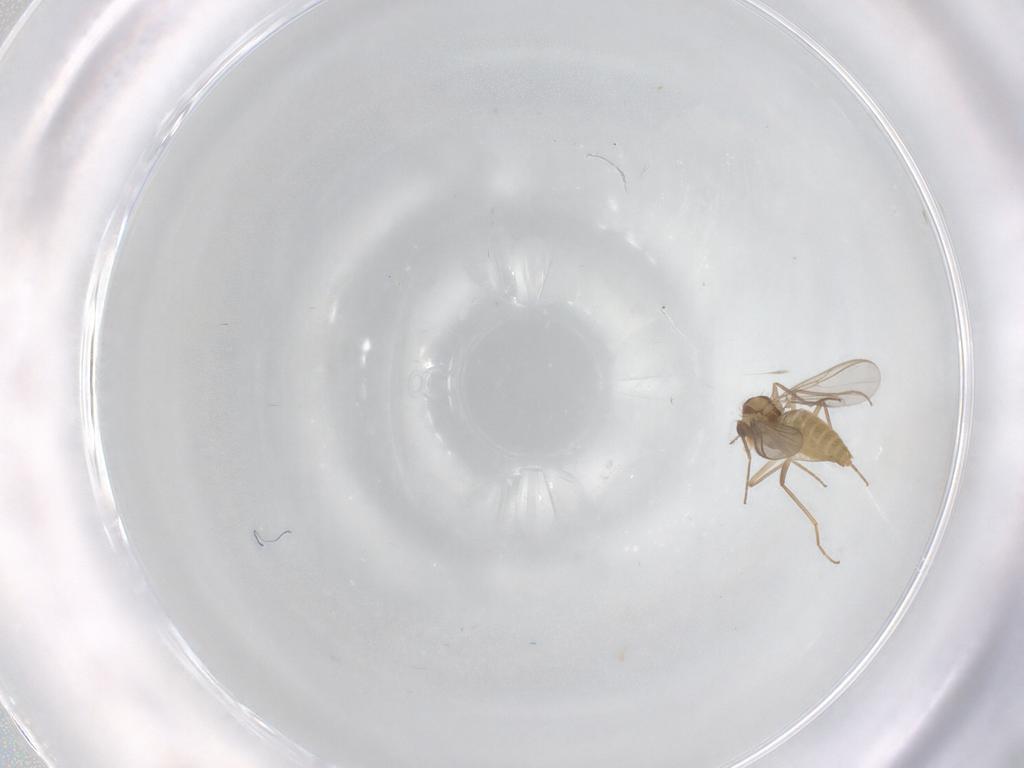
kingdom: Animalia
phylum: Arthropoda
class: Insecta
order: Diptera
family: Chironomidae
